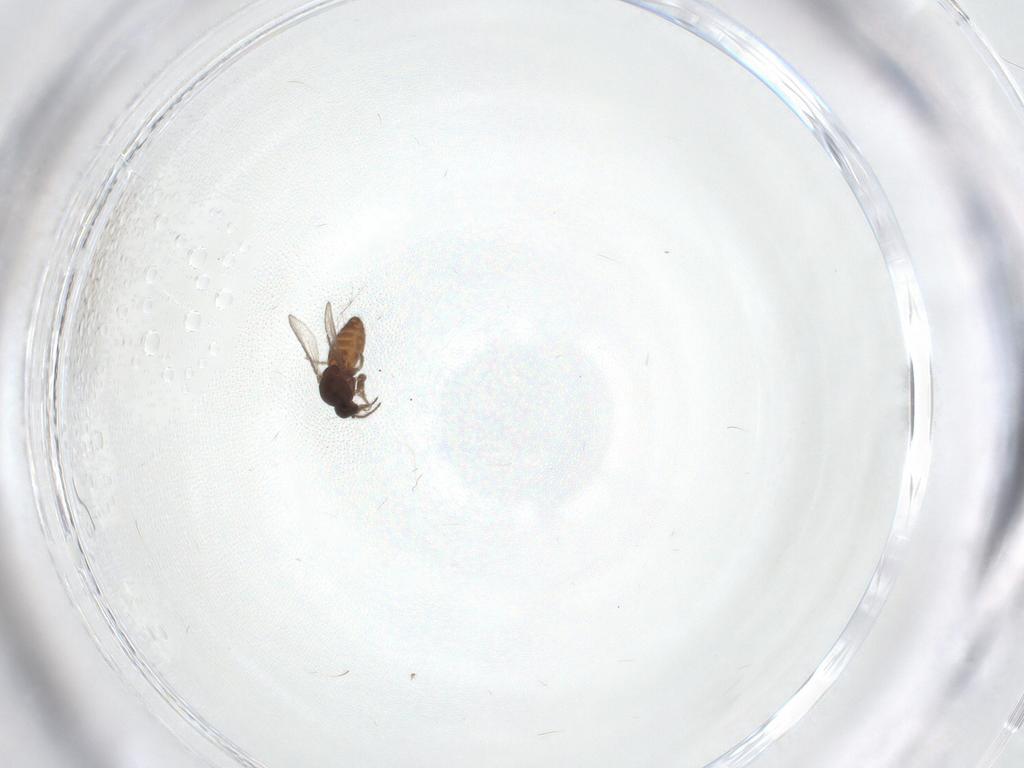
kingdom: Animalia
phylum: Arthropoda
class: Insecta
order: Diptera
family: Ceratopogonidae
